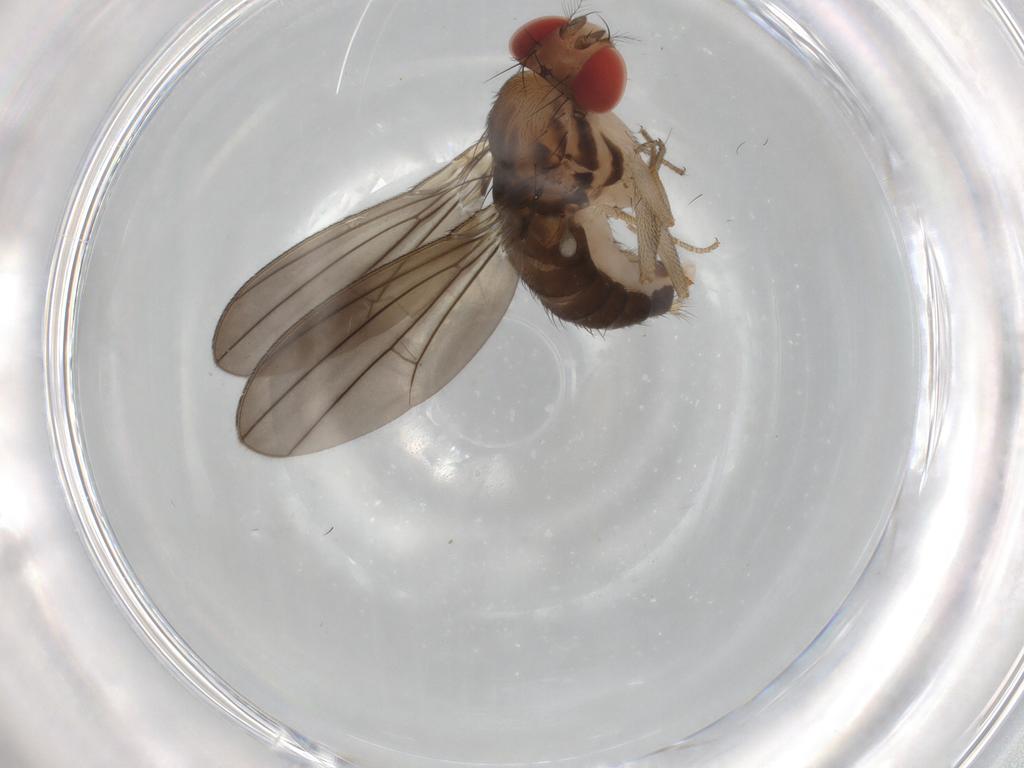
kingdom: Animalia
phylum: Arthropoda
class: Insecta
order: Diptera
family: Drosophilidae
